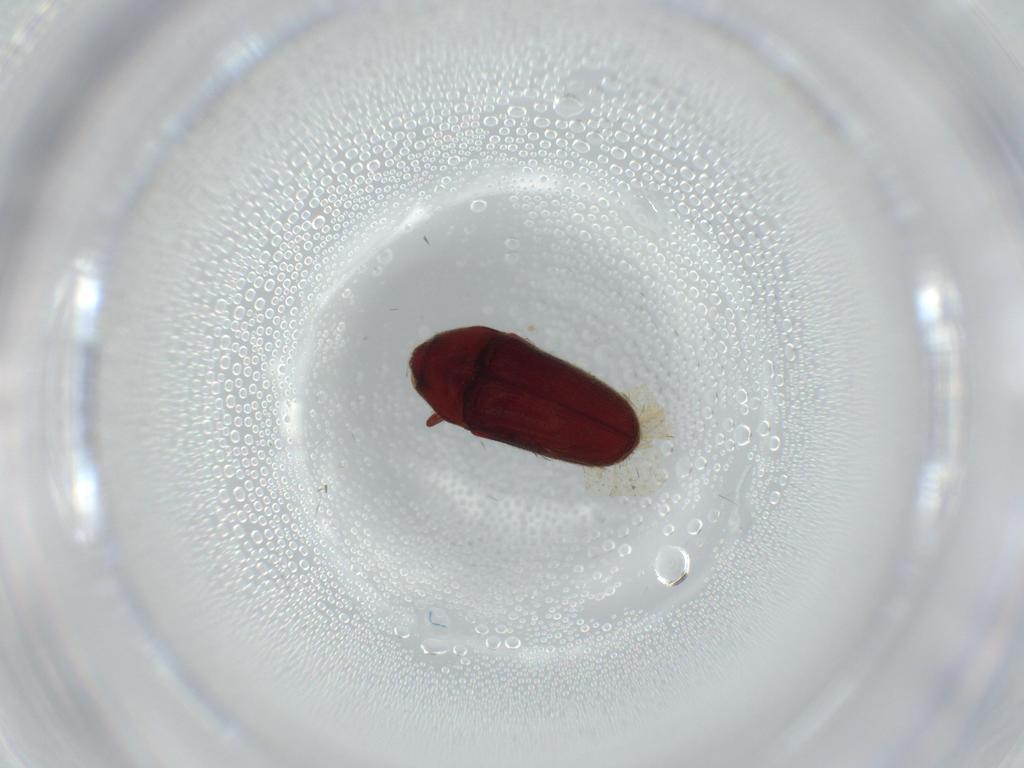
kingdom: Animalia
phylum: Arthropoda
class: Insecta
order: Coleoptera
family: Throscidae
